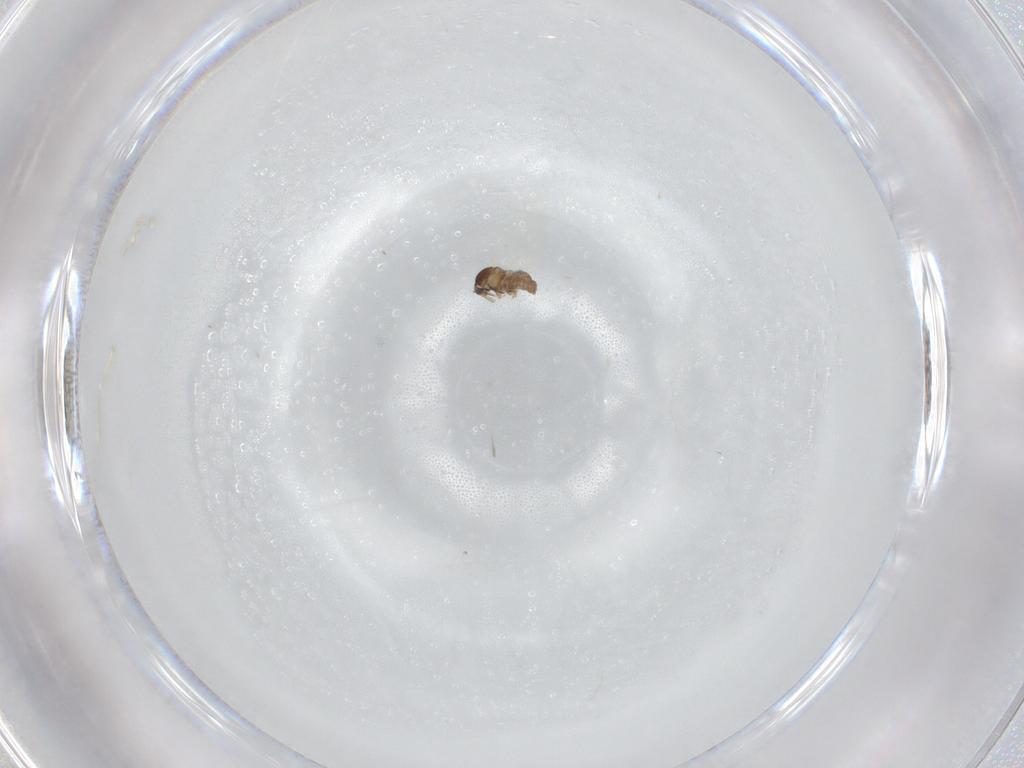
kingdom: Animalia
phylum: Arthropoda
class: Insecta
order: Diptera
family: Cecidomyiidae
